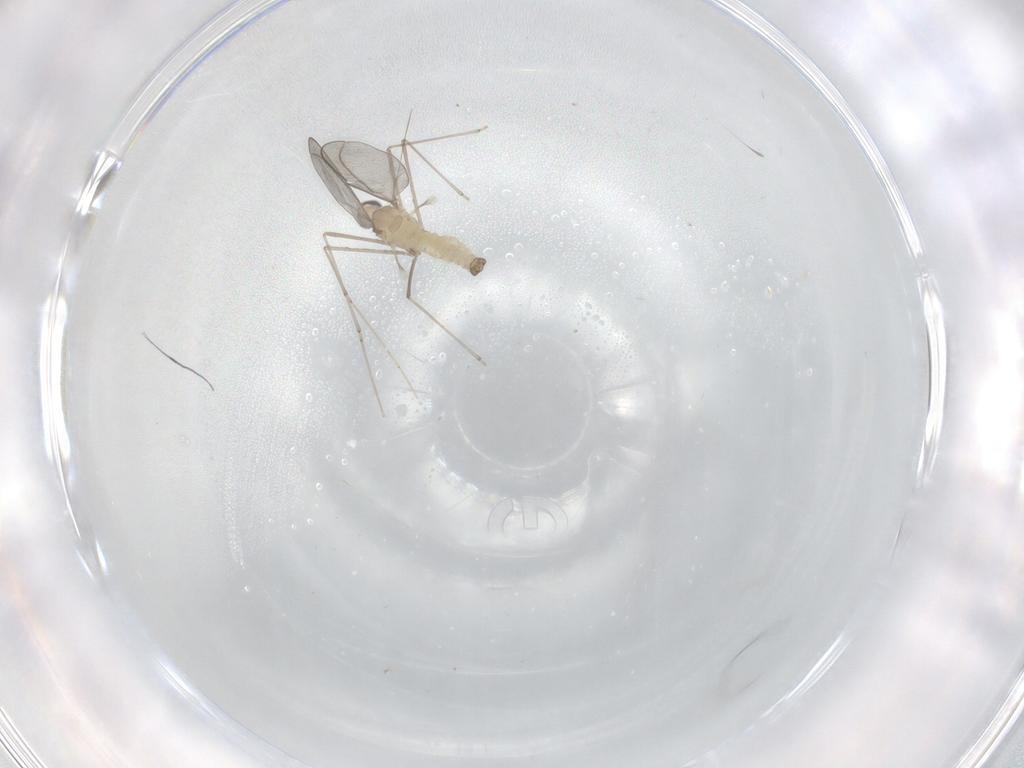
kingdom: Animalia
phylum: Arthropoda
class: Insecta
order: Diptera
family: Cecidomyiidae
